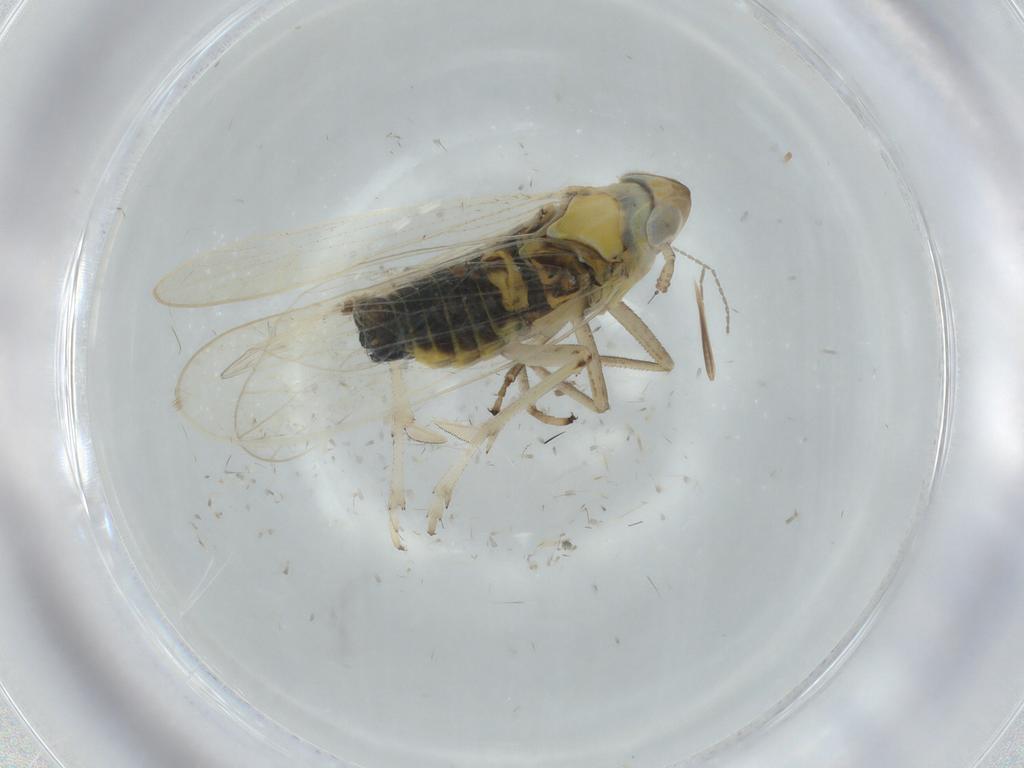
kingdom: Animalia
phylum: Arthropoda
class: Insecta
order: Hemiptera
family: Delphacidae
